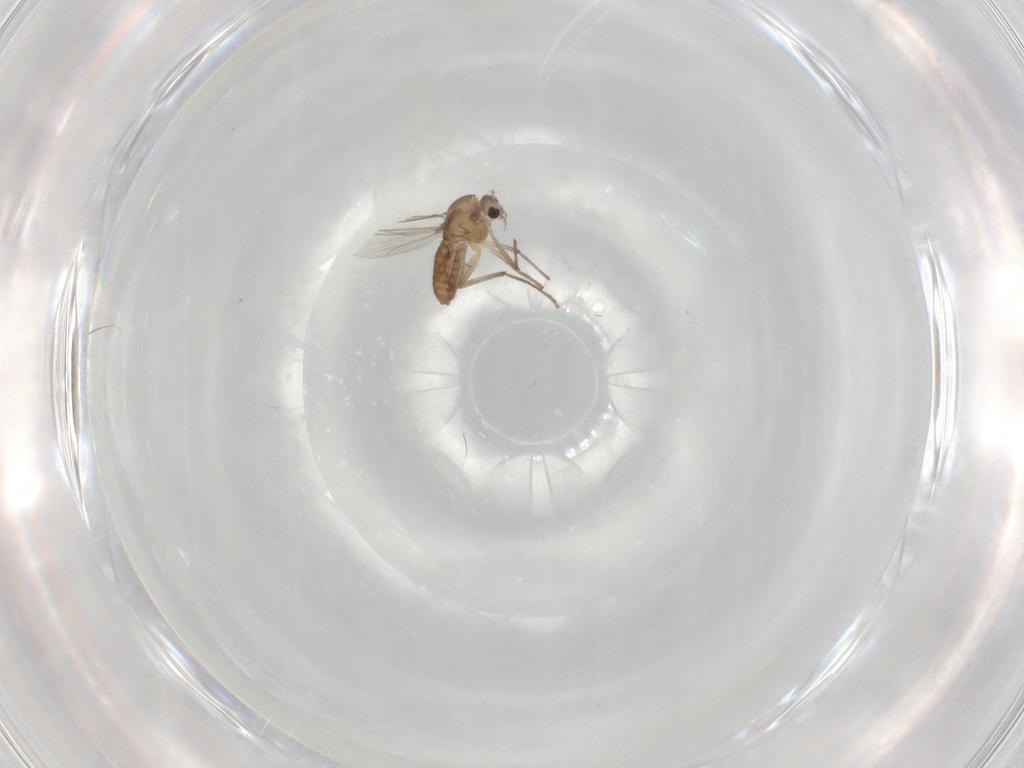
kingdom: Animalia
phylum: Arthropoda
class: Insecta
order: Diptera
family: Chironomidae
